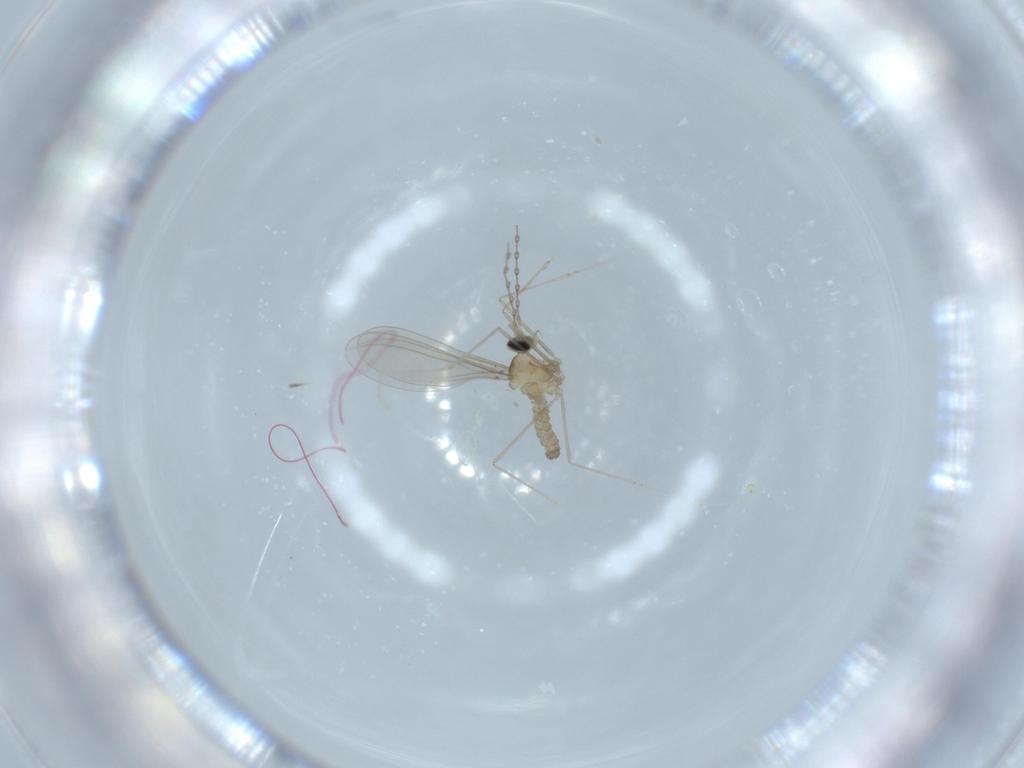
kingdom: Animalia
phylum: Arthropoda
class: Insecta
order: Diptera
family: Cecidomyiidae
